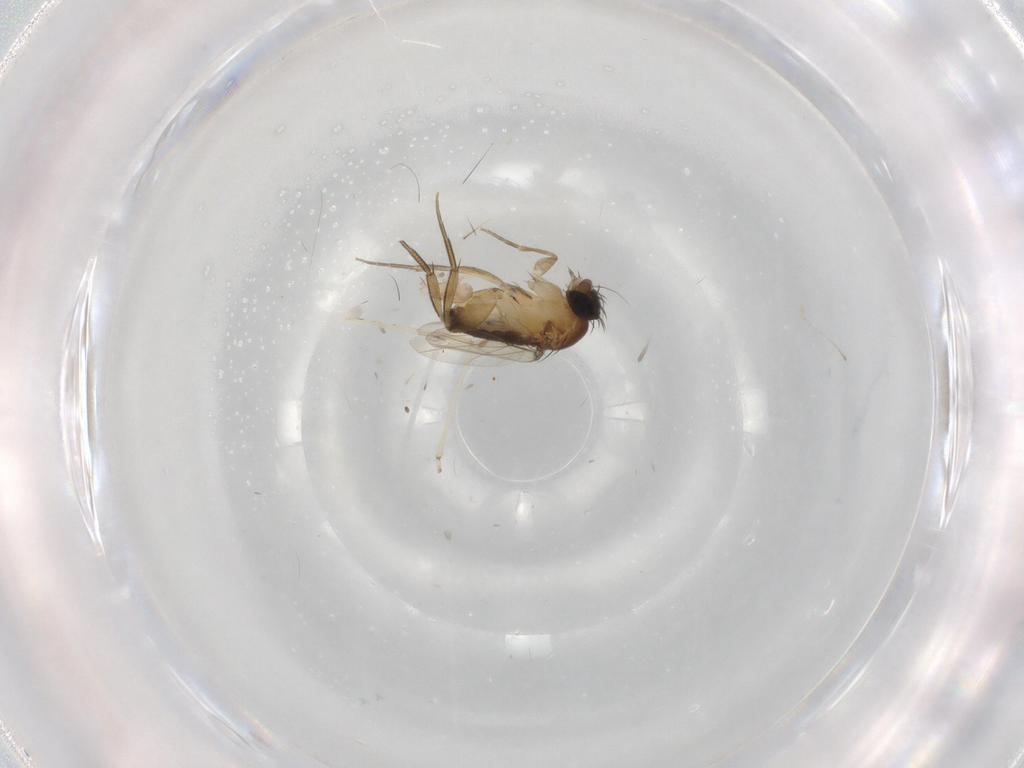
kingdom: Animalia
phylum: Arthropoda
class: Insecta
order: Diptera
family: Phoridae
